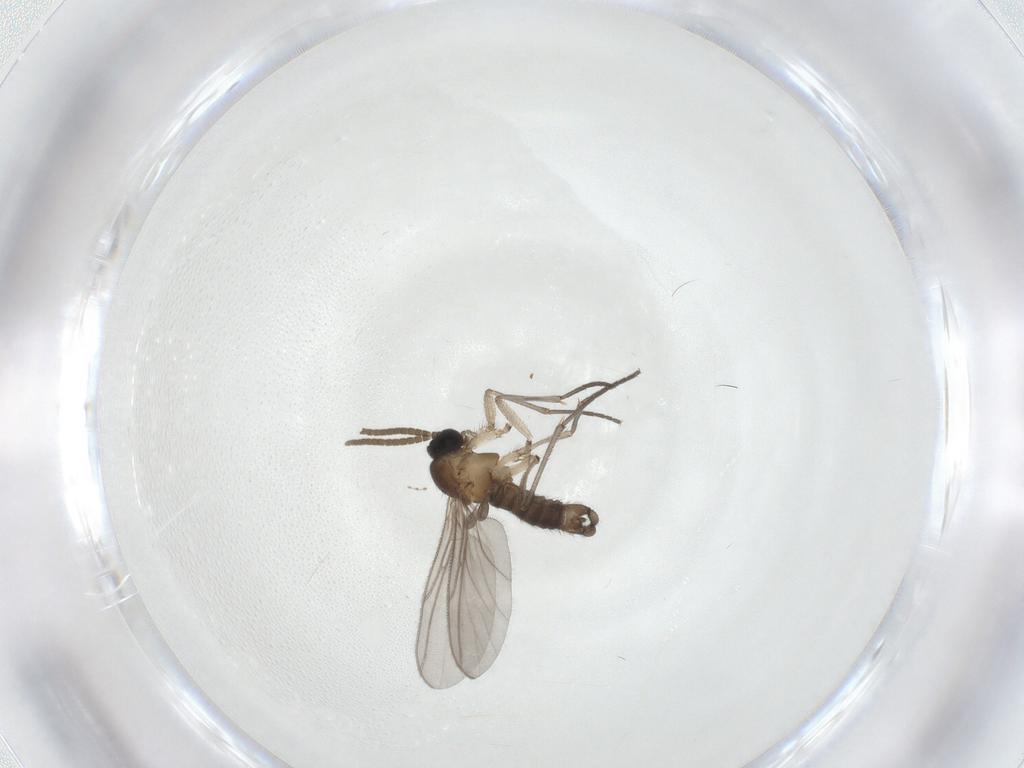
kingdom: Animalia
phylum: Arthropoda
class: Insecta
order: Diptera
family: Cecidomyiidae
